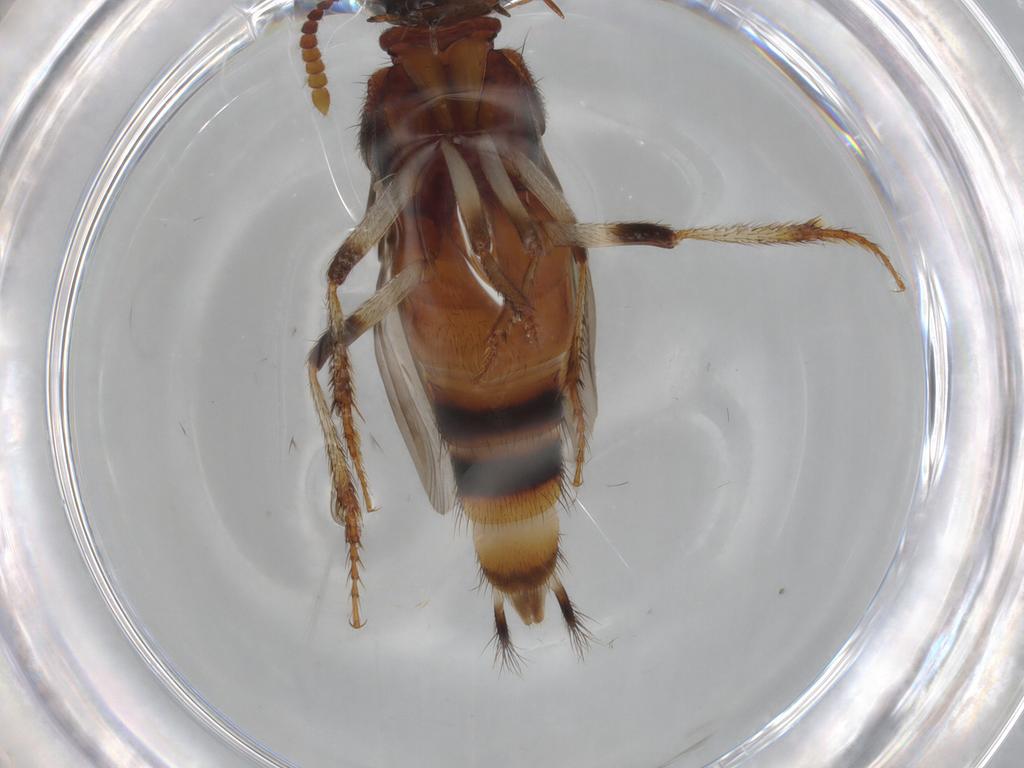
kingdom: Animalia
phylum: Arthropoda
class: Insecta
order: Coleoptera
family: Staphylinidae
